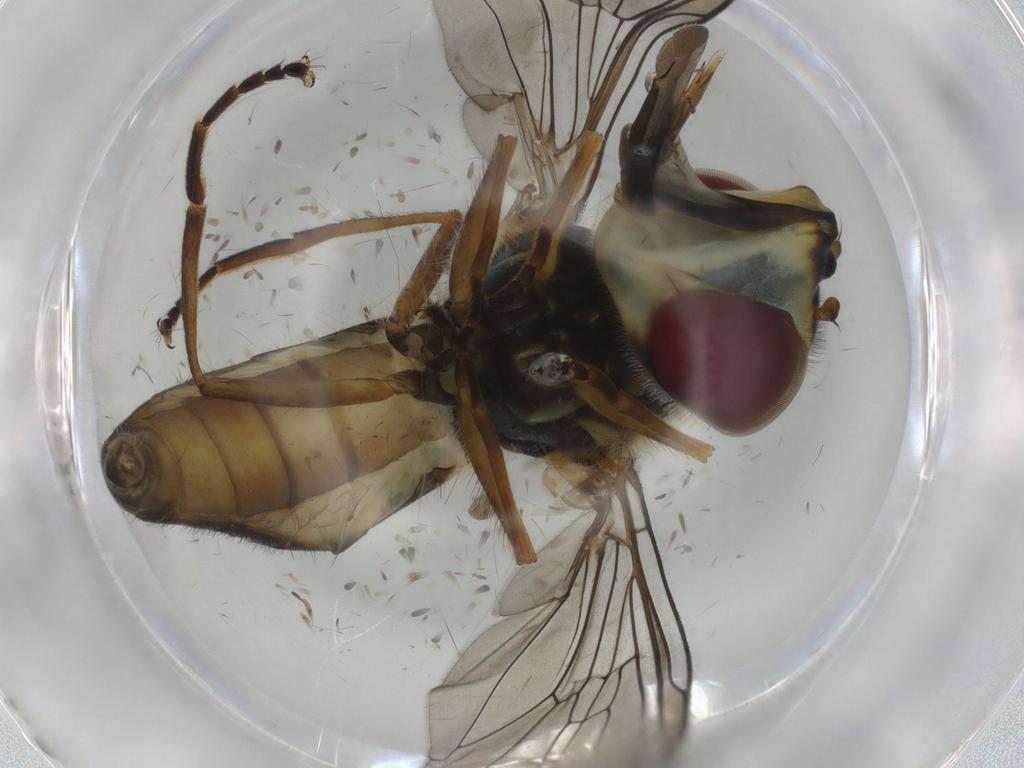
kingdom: Animalia
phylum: Arthropoda
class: Insecta
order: Diptera
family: Syrphidae
